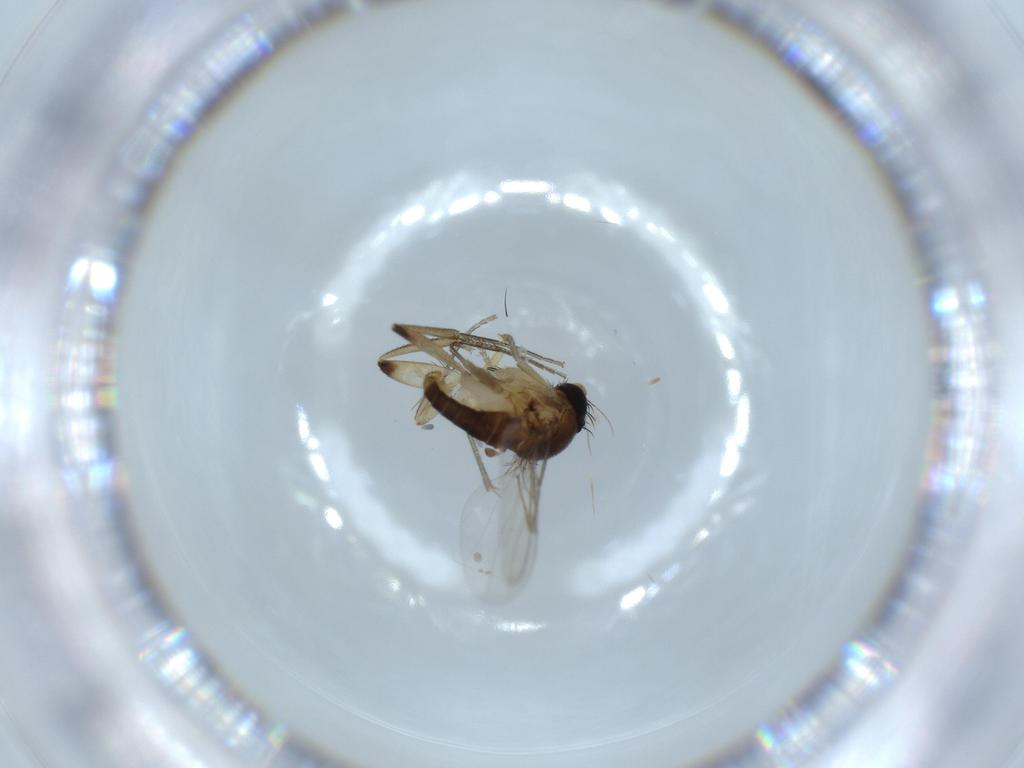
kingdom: Animalia
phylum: Arthropoda
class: Insecta
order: Diptera
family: Phoridae
